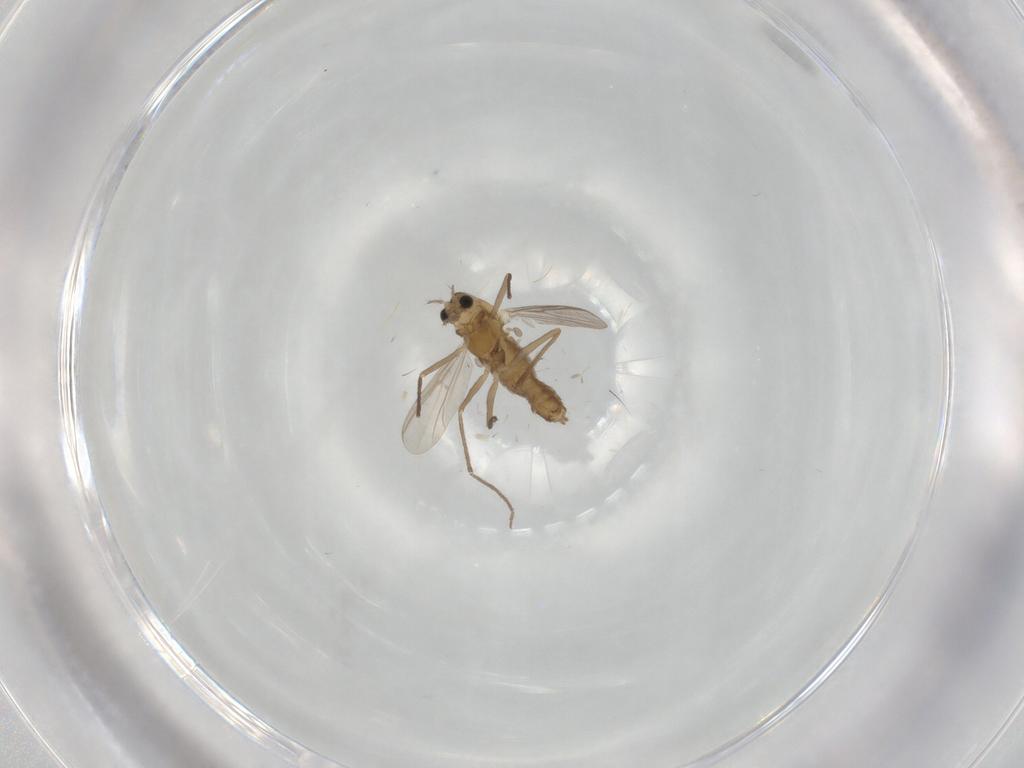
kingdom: Animalia
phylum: Arthropoda
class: Insecta
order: Diptera
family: Chironomidae
